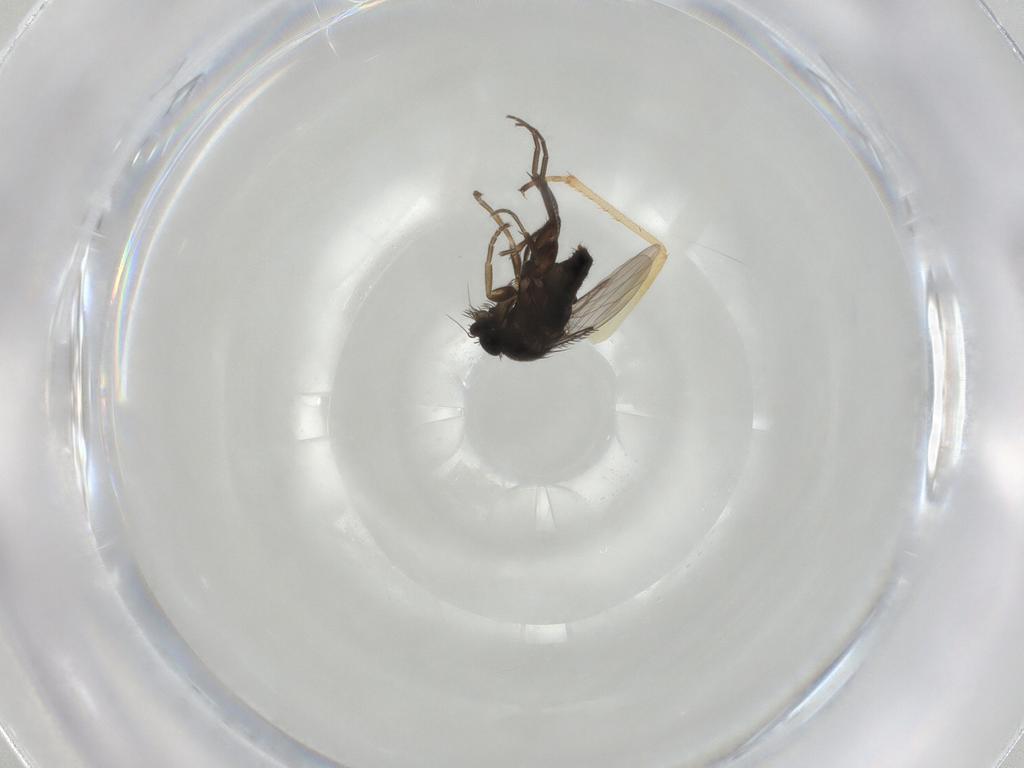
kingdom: Animalia
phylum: Arthropoda
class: Insecta
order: Diptera
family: Phoridae
